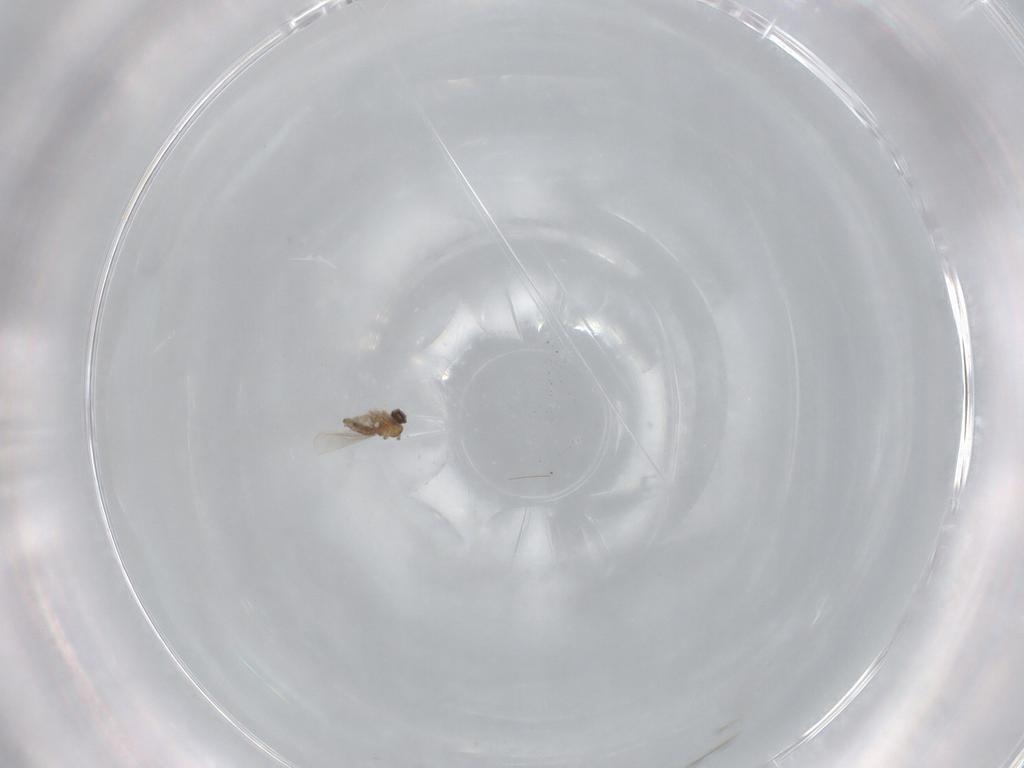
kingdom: Animalia
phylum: Arthropoda
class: Insecta
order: Diptera
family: Cecidomyiidae
